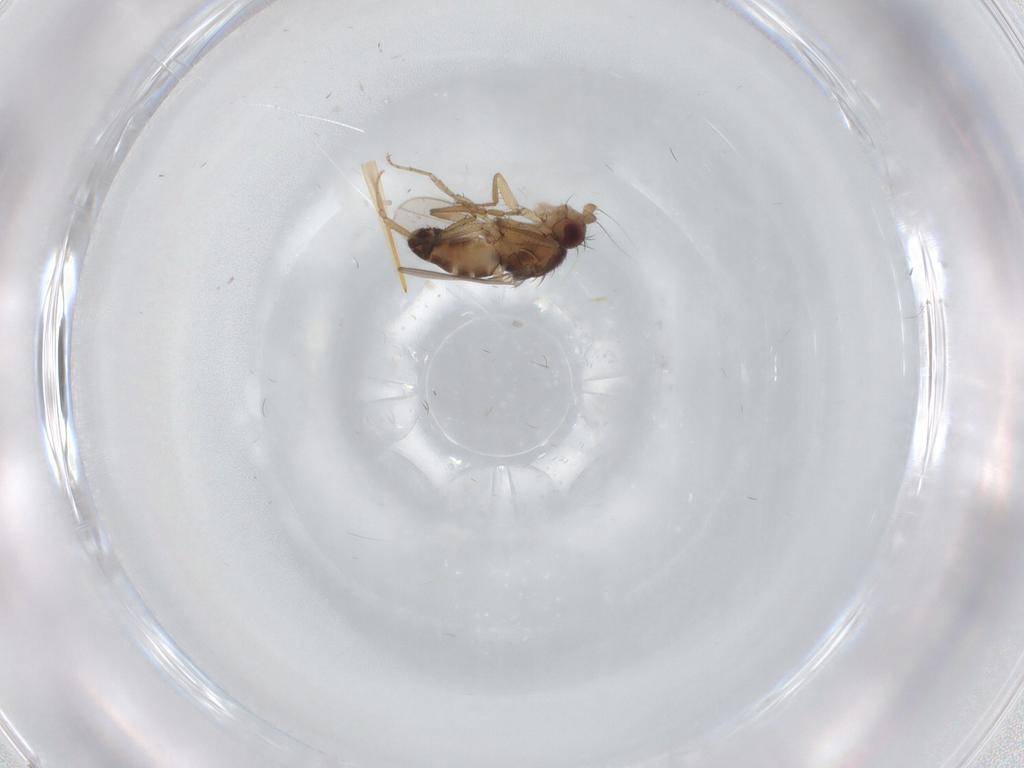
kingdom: Animalia
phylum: Arthropoda
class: Insecta
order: Diptera
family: Sphaeroceridae
